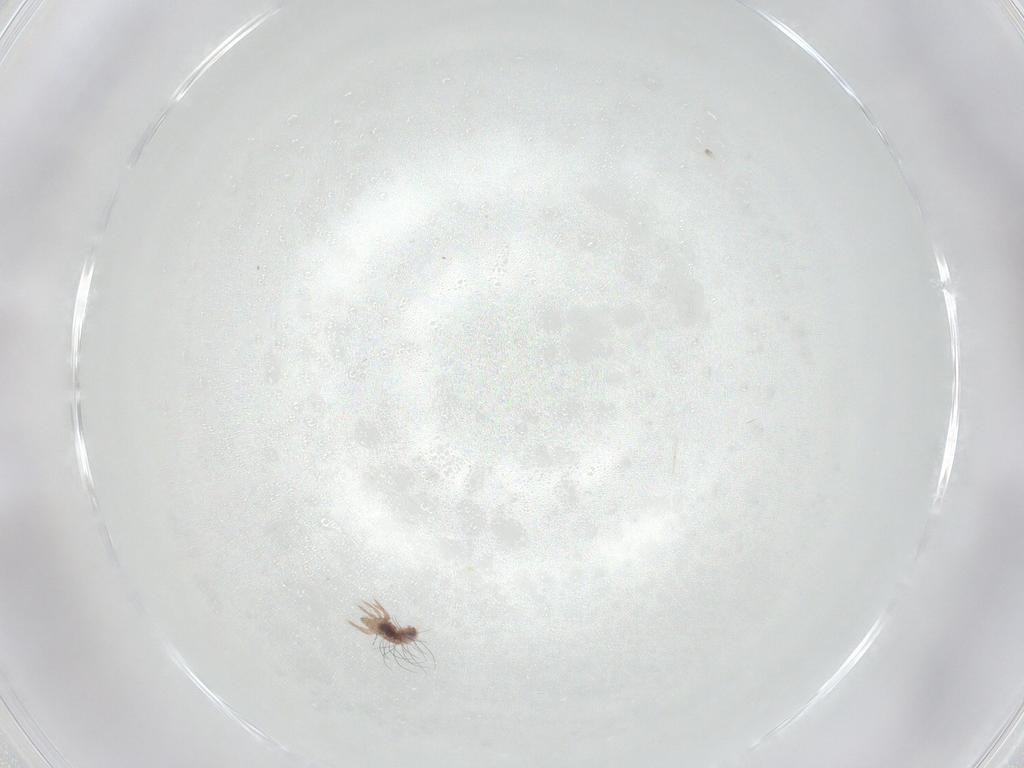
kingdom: Animalia
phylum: Arthropoda
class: Arachnida
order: Sarcoptiformes
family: Caloppiidae
